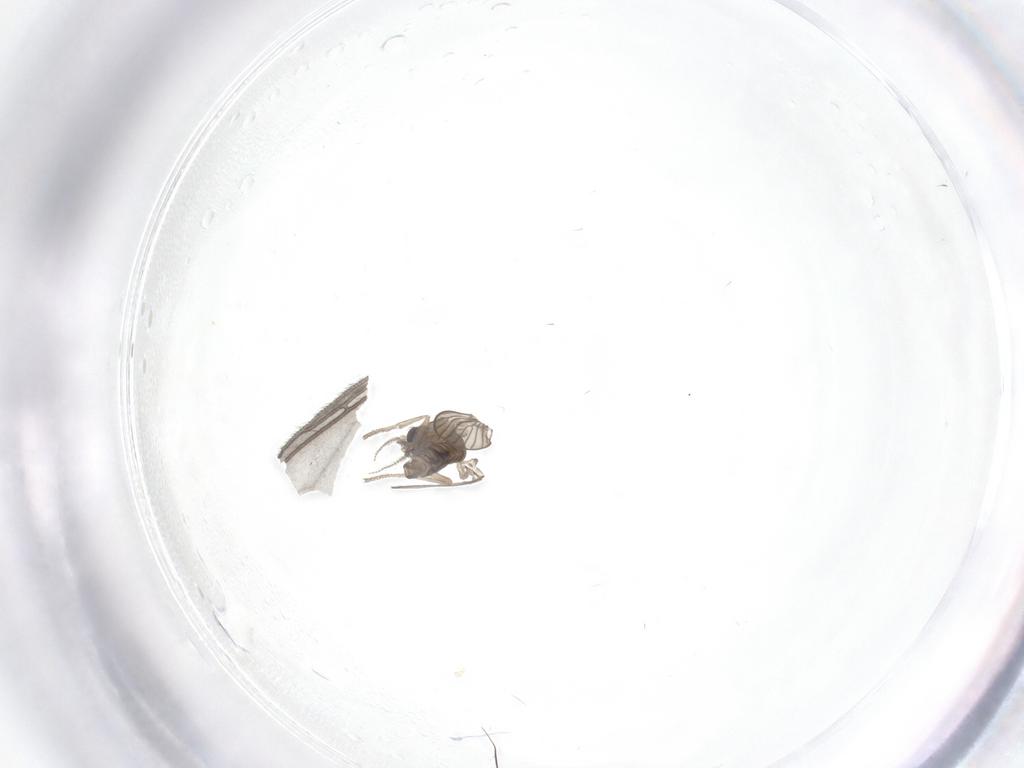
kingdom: Animalia
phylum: Arthropoda
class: Insecta
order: Diptera
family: Psychodidae
